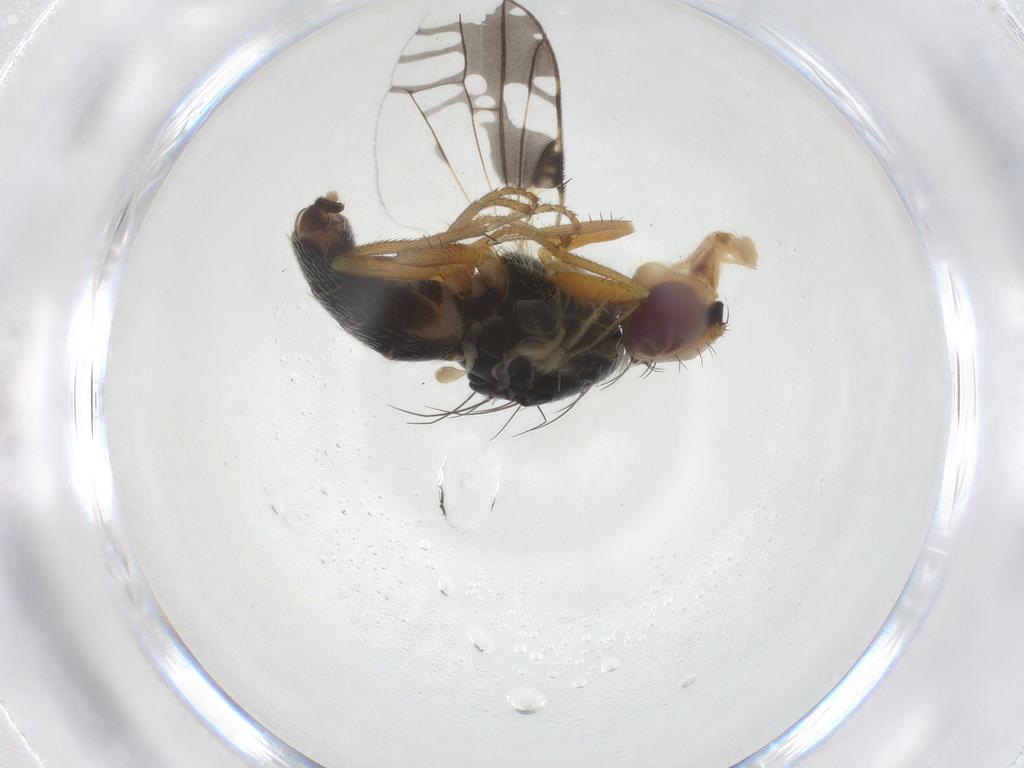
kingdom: Animalia
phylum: Arthropoda
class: Insecta
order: Diptera
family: Tephritidae
